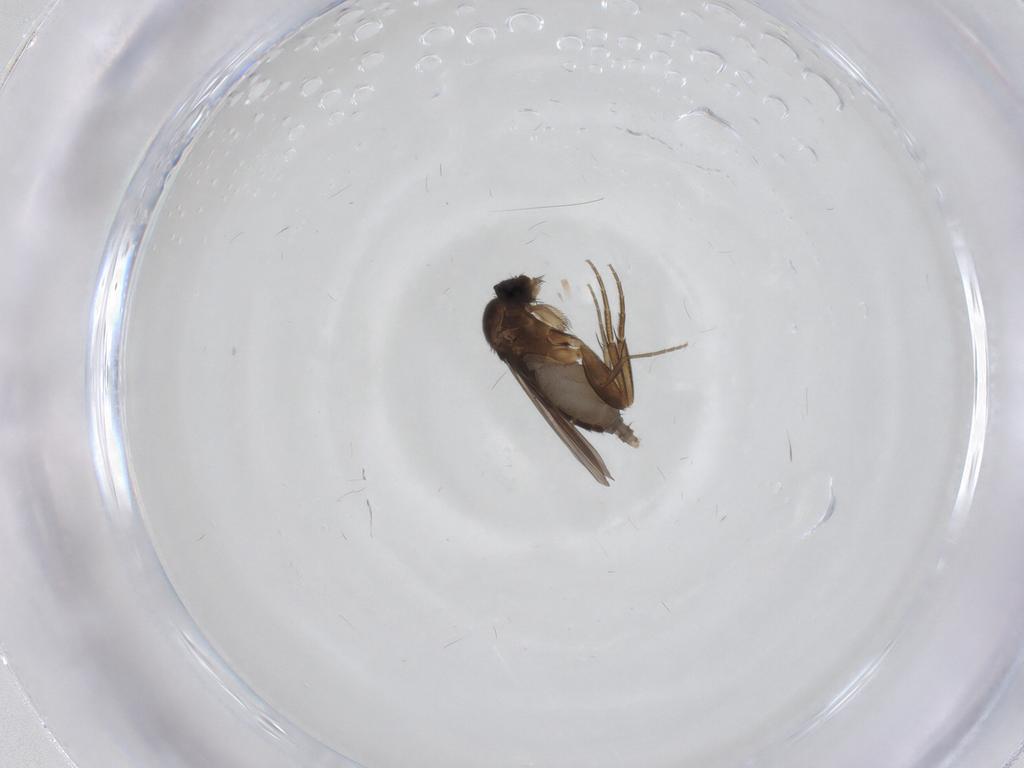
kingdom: Animalia
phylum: Arthropoda
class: Insecta
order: Diptera
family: Phoridae
